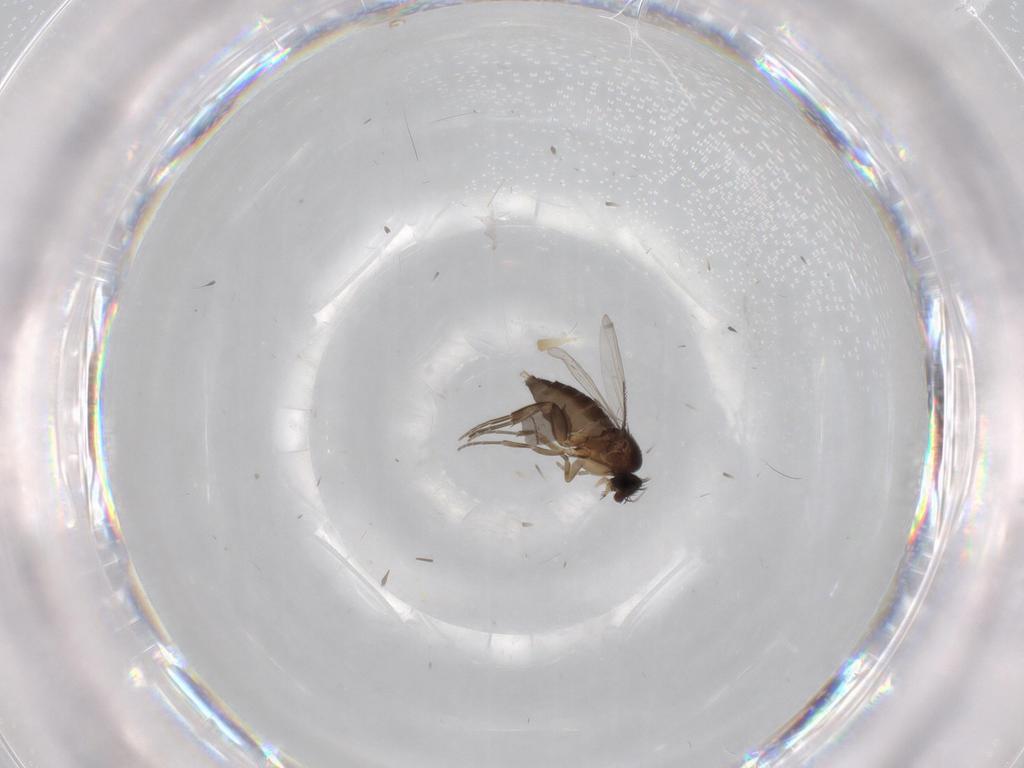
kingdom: Animalia
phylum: Arthropoda
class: Insecta
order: Diptera
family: Phoridae
